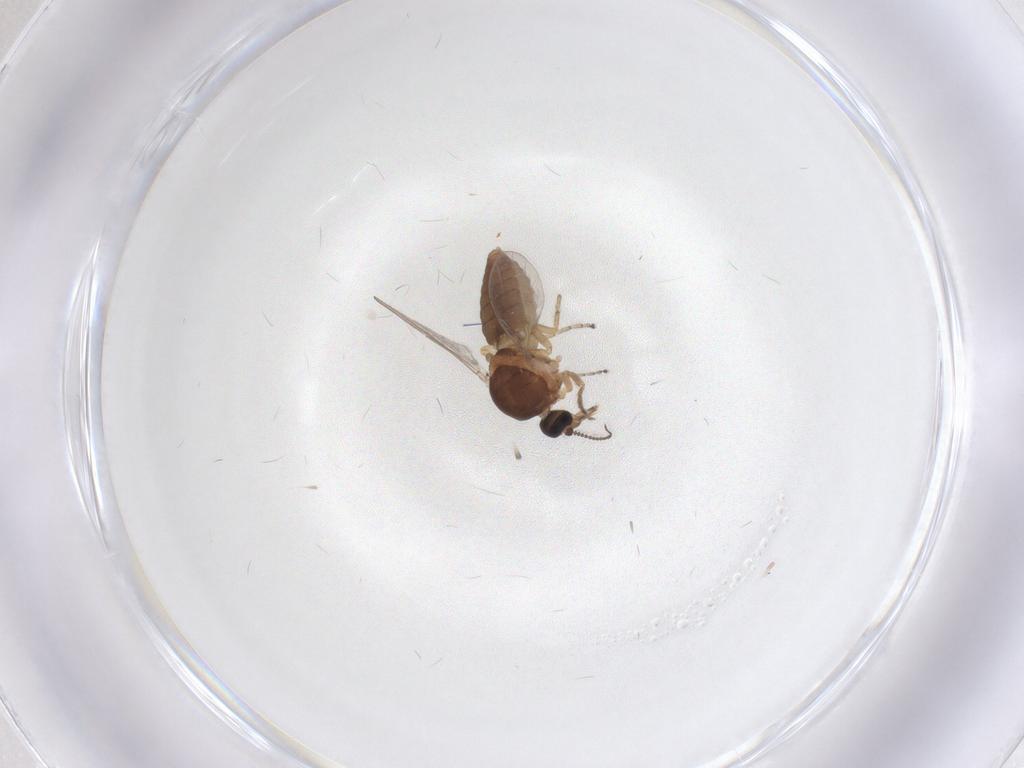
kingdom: Animalia
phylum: Arthropoda
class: Insecta
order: Diptera
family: Ceratopogonidae
